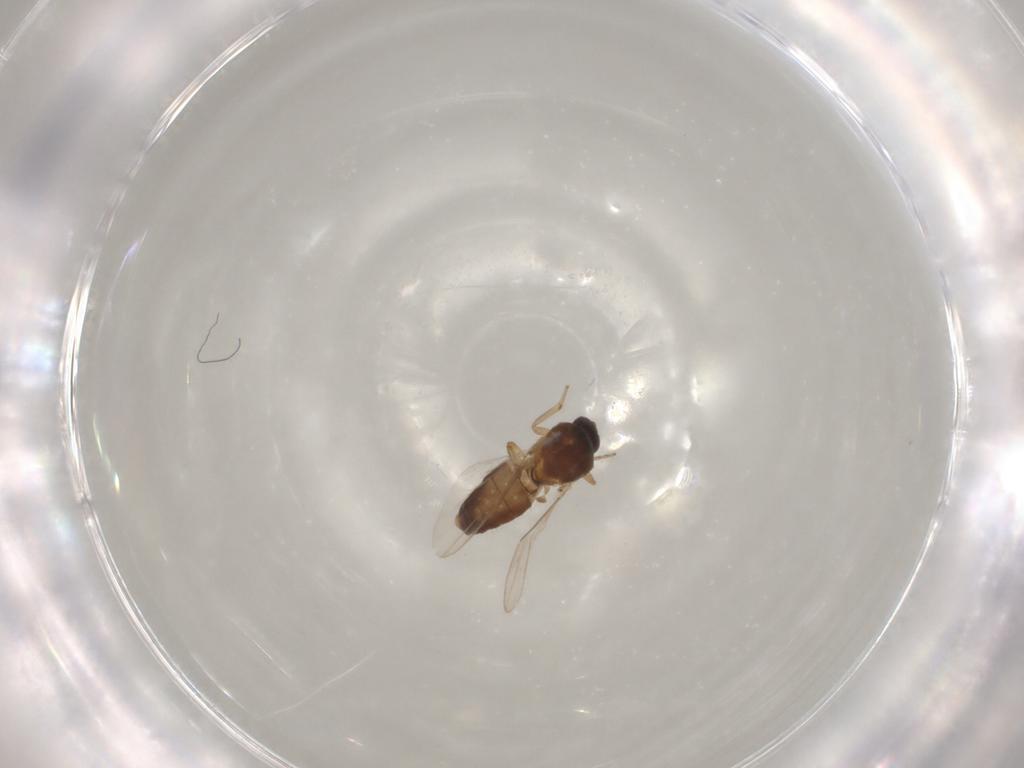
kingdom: Animalia
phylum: Arthropoda
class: Insecta
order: Diptera
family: Ceratopogonidae
